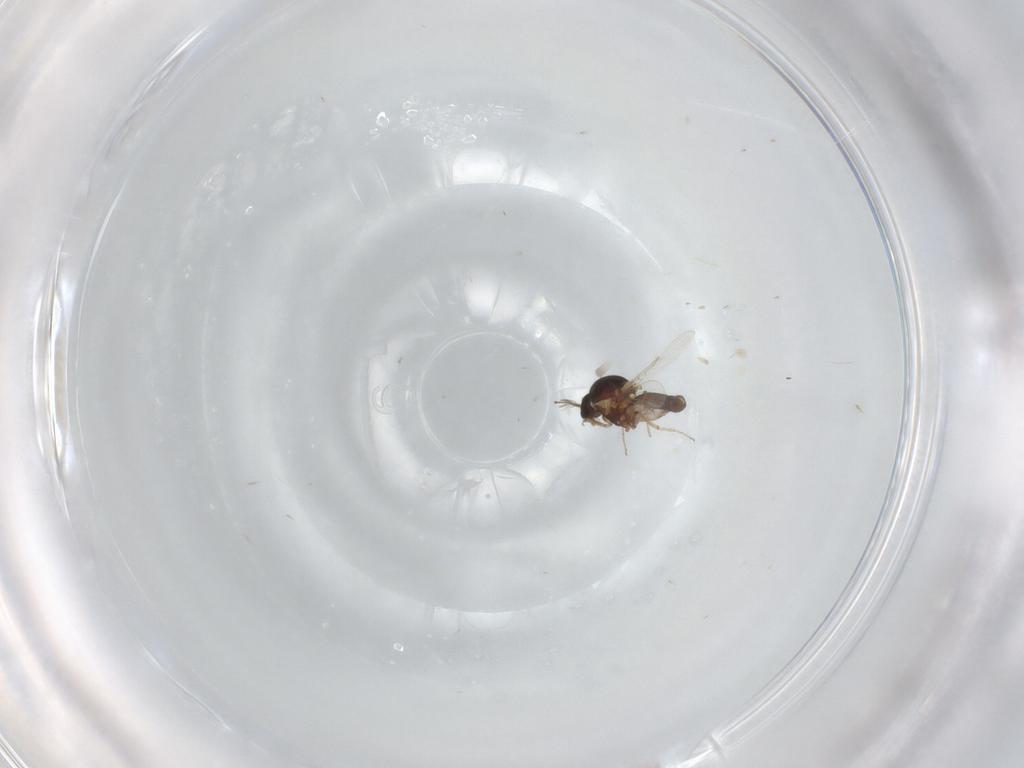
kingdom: Animalia
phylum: Arthropoda
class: Insecta
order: Diptera
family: Ceratopogonidae
